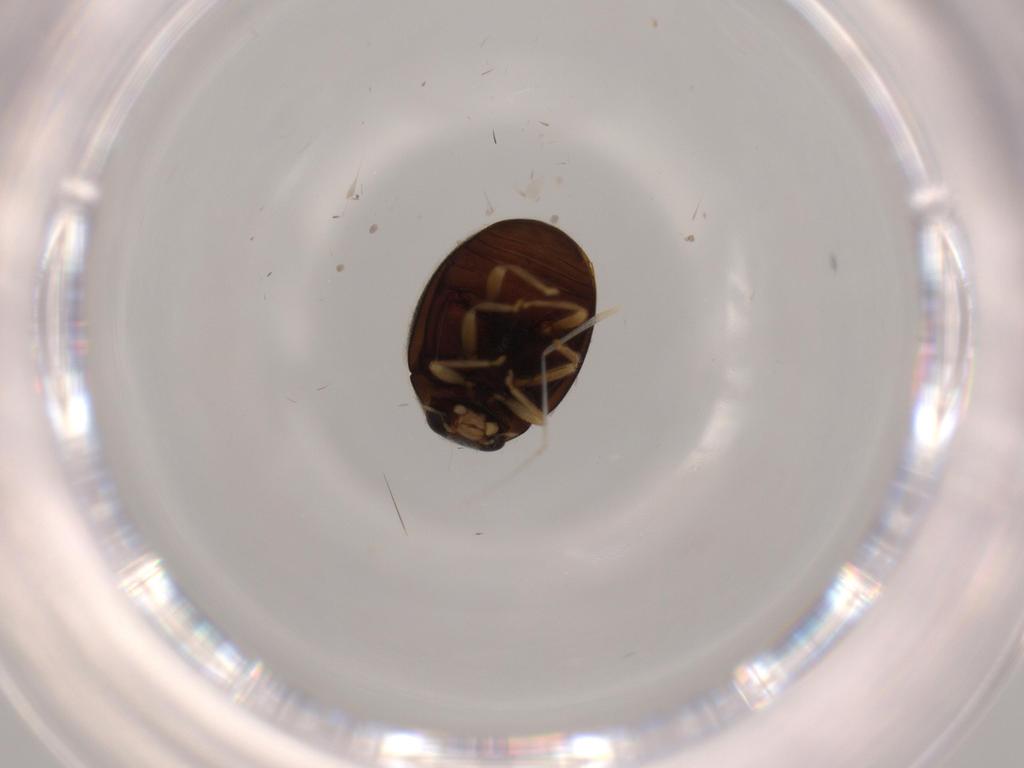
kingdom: Animalia
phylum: Arthropoda
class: Insecta
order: Coleoptera
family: Coccinellidae
